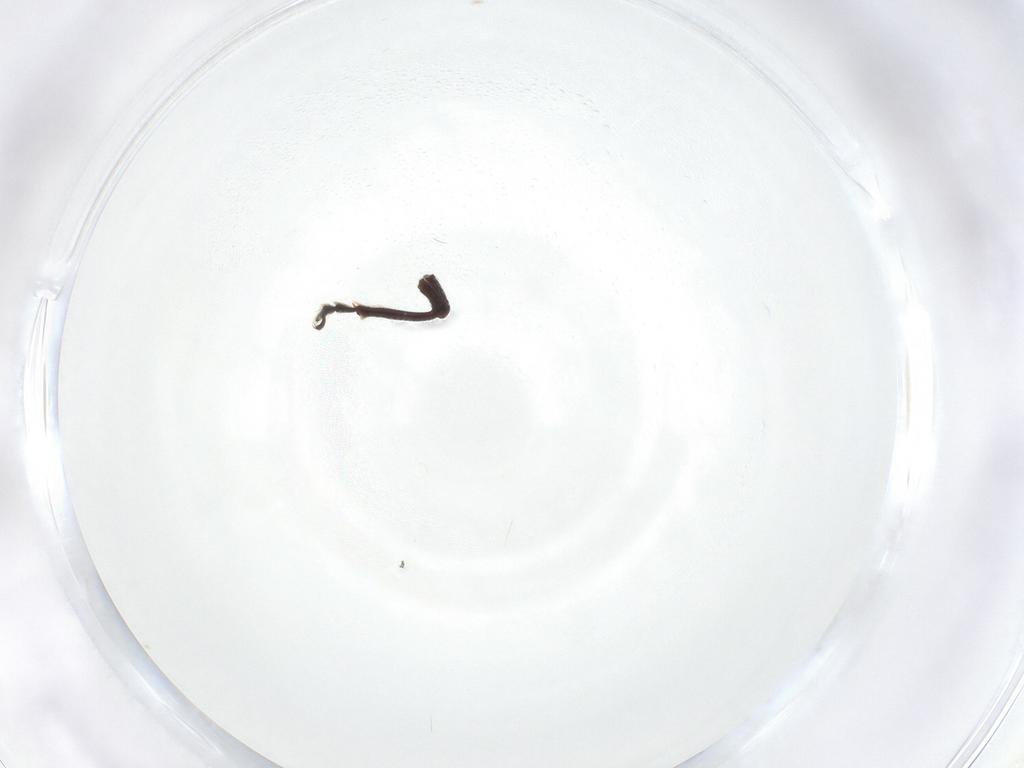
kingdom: Animalia
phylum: Arthropoda
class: Insecta
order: Coleoptera
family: Curculionidae
